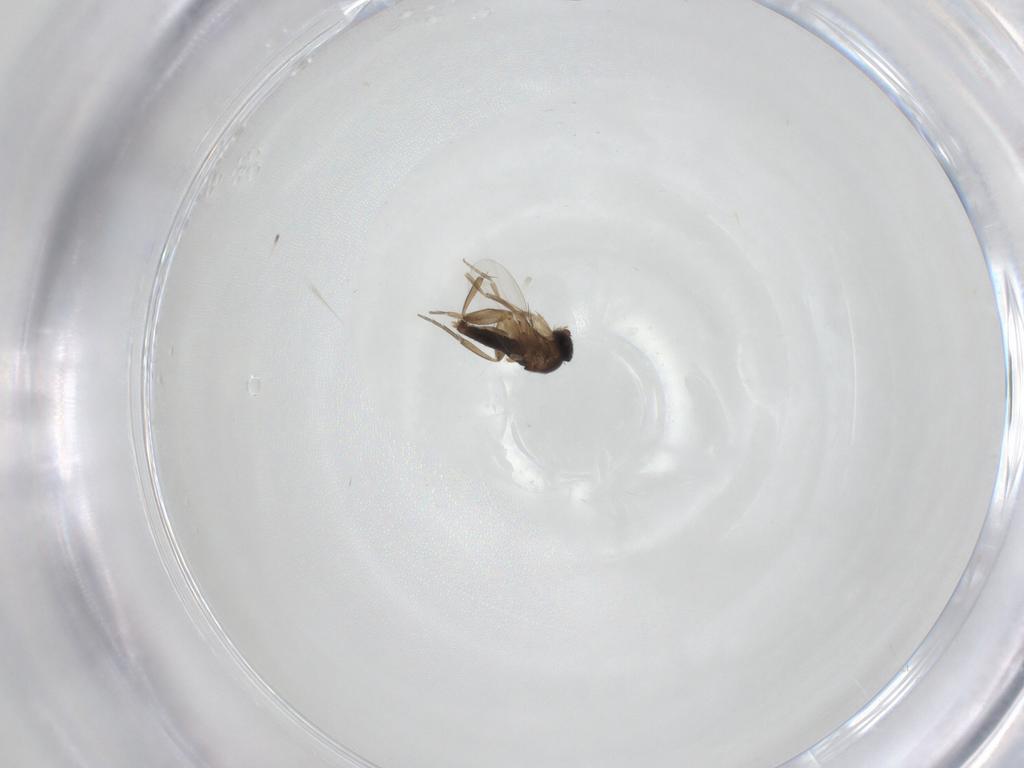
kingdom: Animalia
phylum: Arthropoda
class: Insecta
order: Diptera
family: Phoridae
